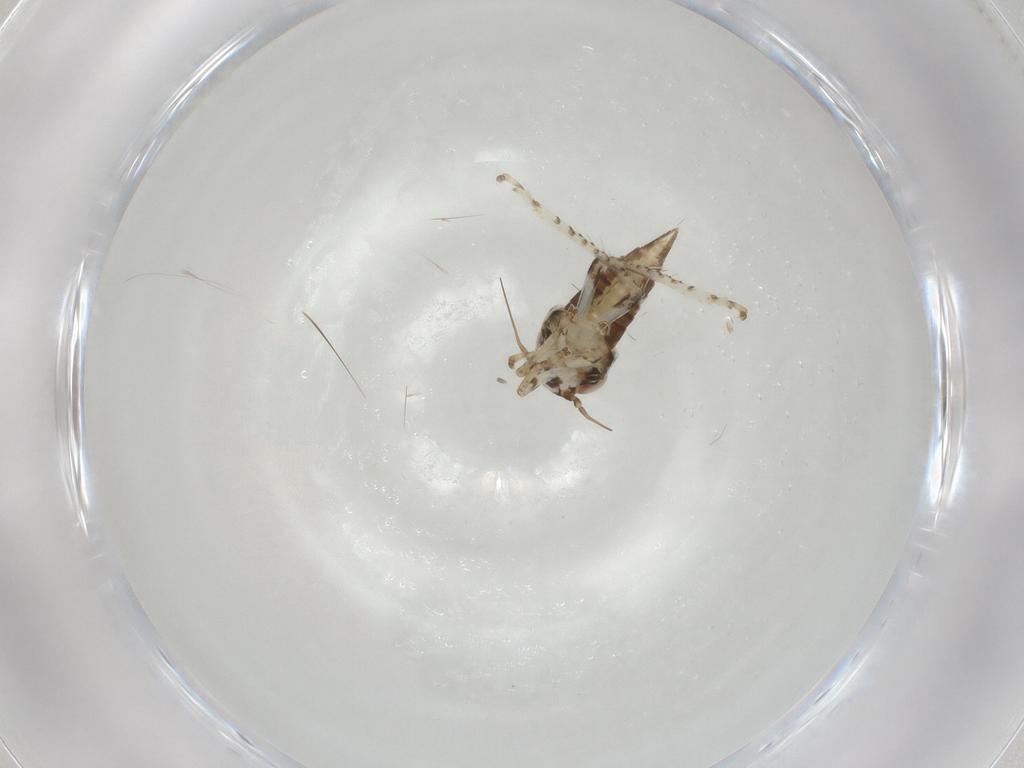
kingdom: Animalia
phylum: Arthropoda
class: Insecta
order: Hemiptera
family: Cicadellidae
